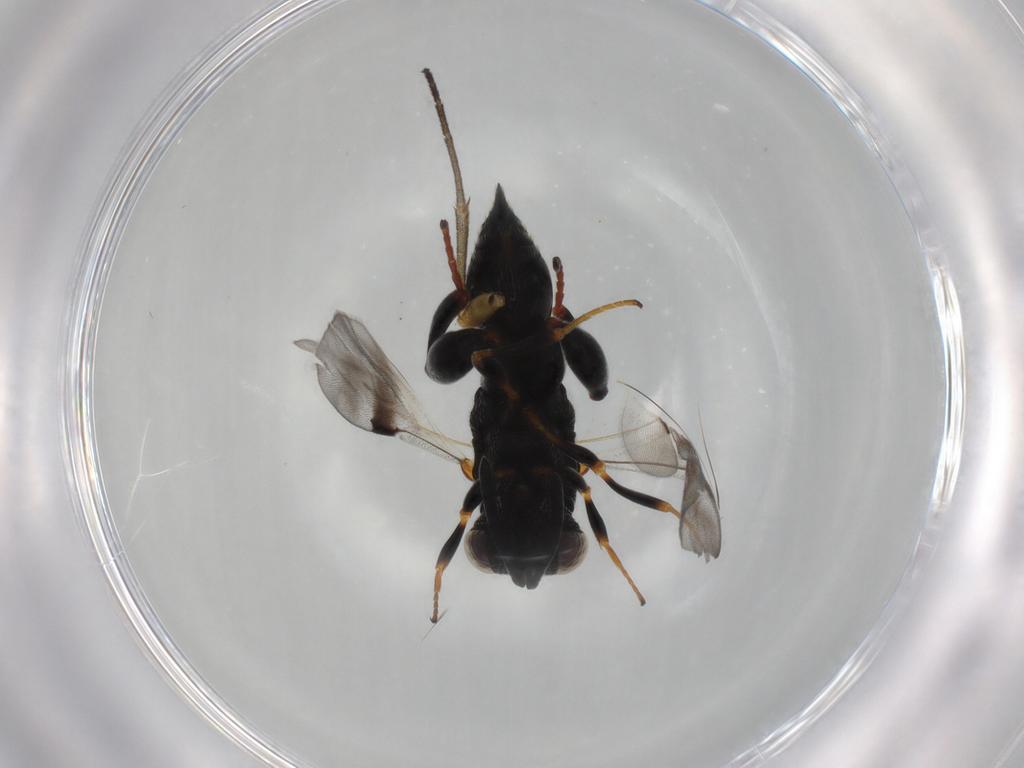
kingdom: Animalia
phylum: Arthropoda
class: Insecta
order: Hymenoptera
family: Chalcididae
